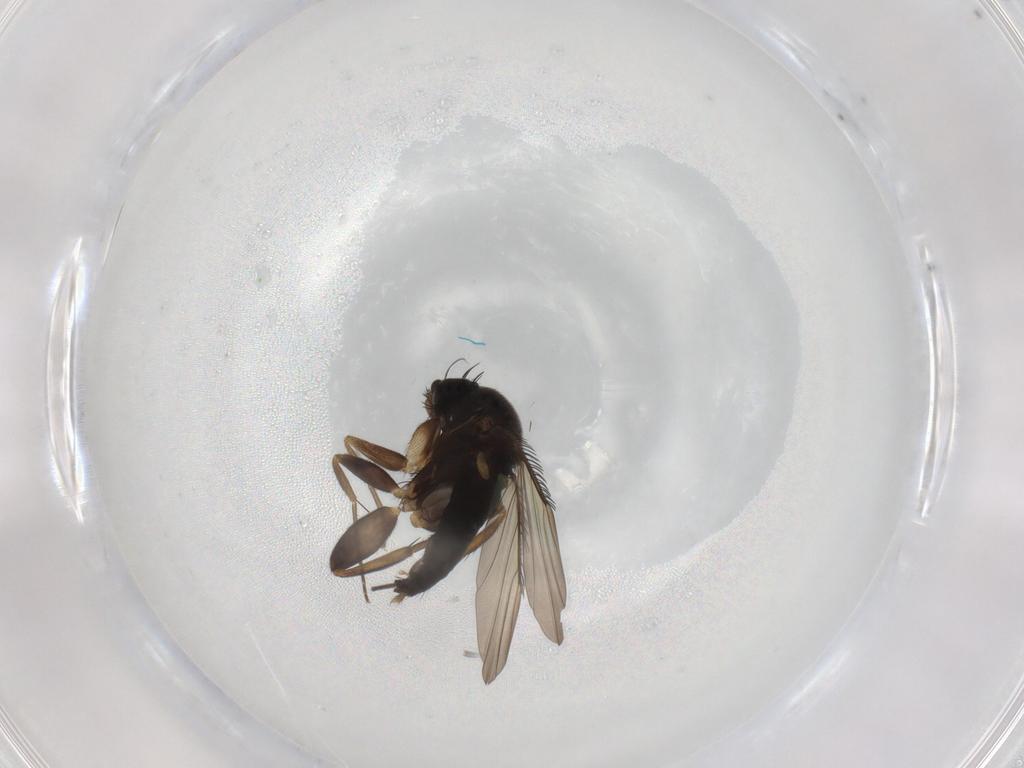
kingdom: Animalia
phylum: Arthropoda
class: Insecta
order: Diptera
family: Phoridae
